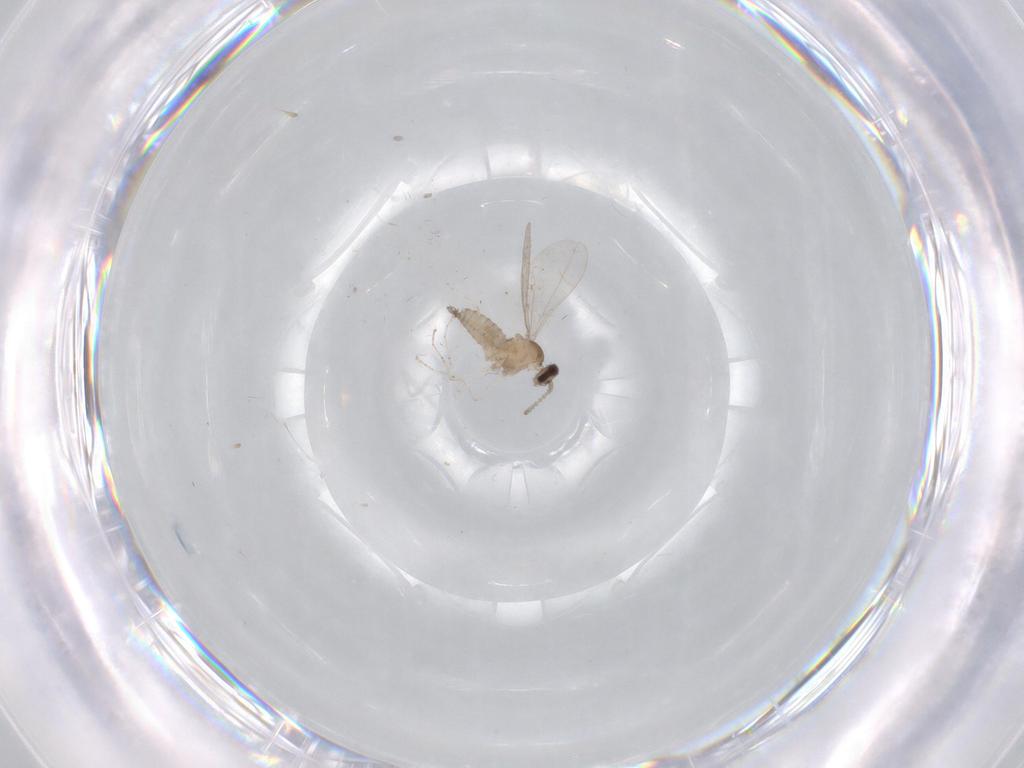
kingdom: Animalia
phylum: Arthropoda
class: Insecta
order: Diptera
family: Cecidomyiidae
